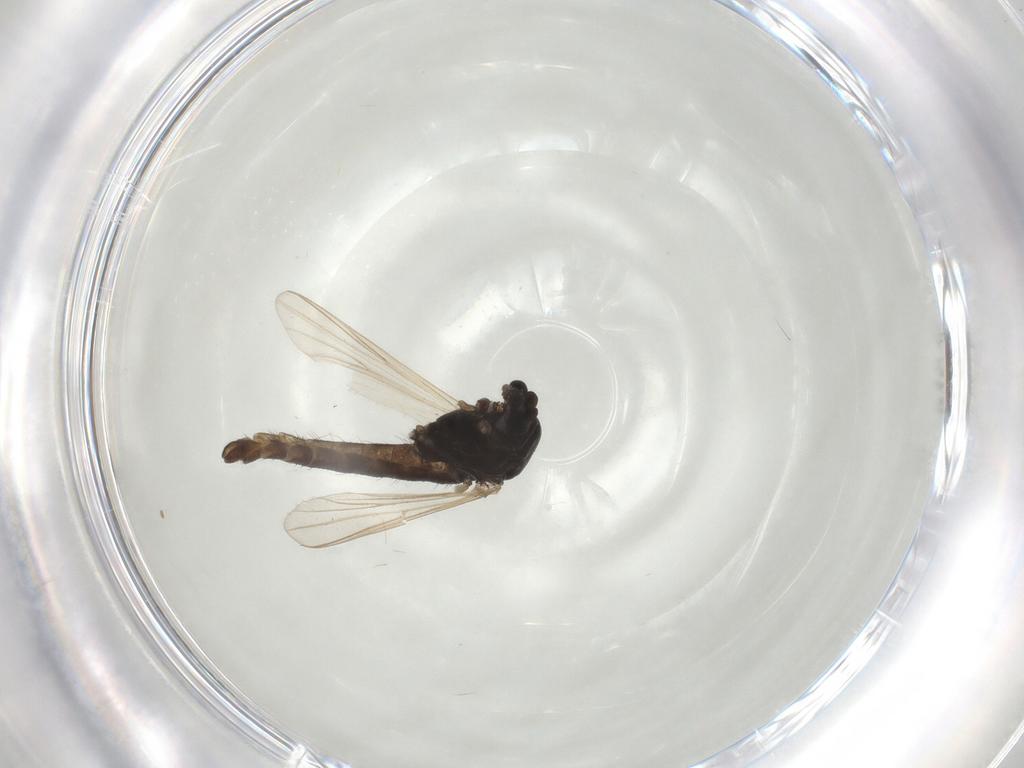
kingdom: Animalia
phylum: Arthropoda
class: Insecta
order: Diptera
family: Chironomidae
